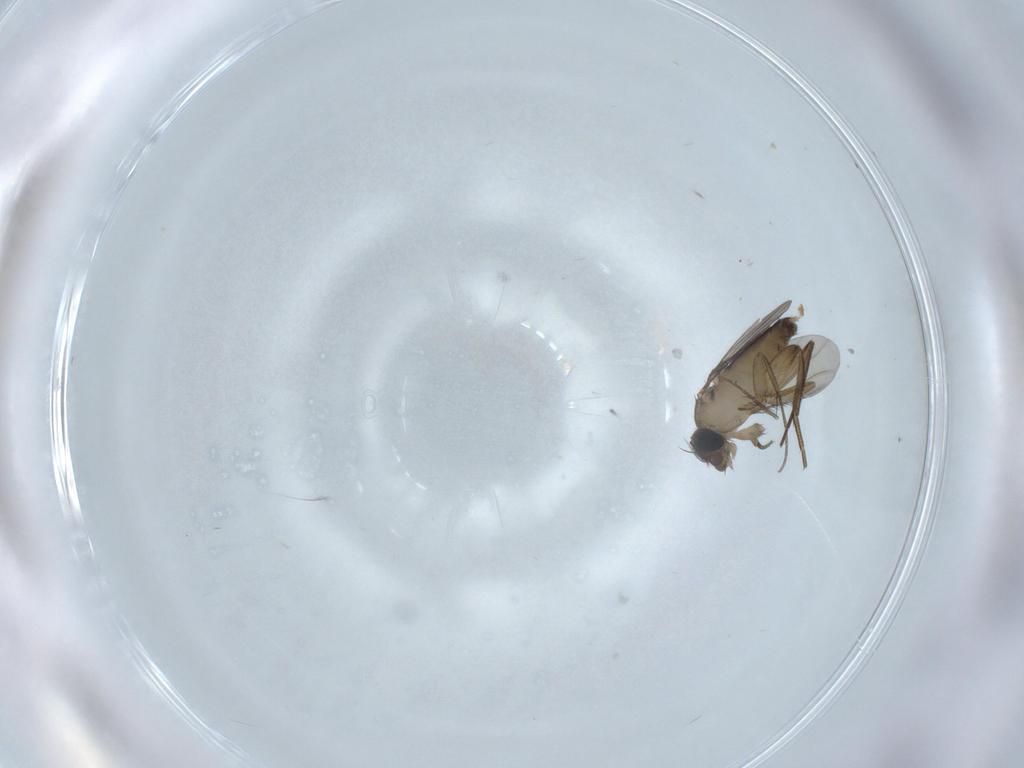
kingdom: Animalia
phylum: Arthropoda
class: Insecta
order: Diptera
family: Phoridae
